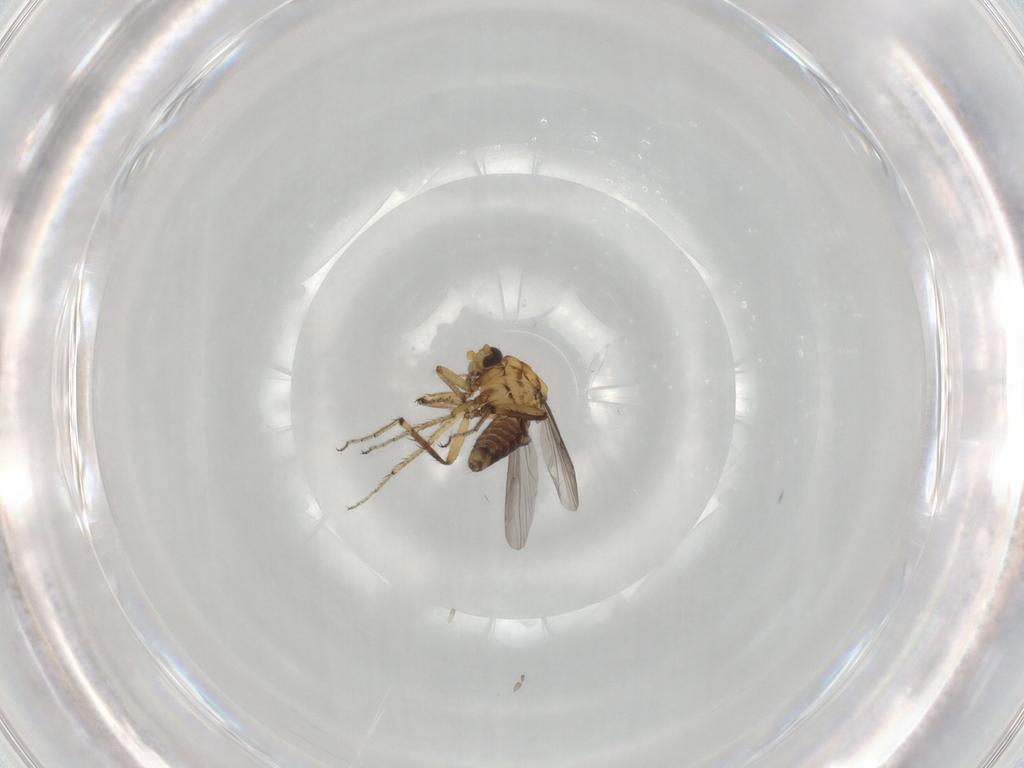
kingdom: Animalia
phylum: Arthropoda
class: Insecta
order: Diptera
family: Ceratopogonidae
